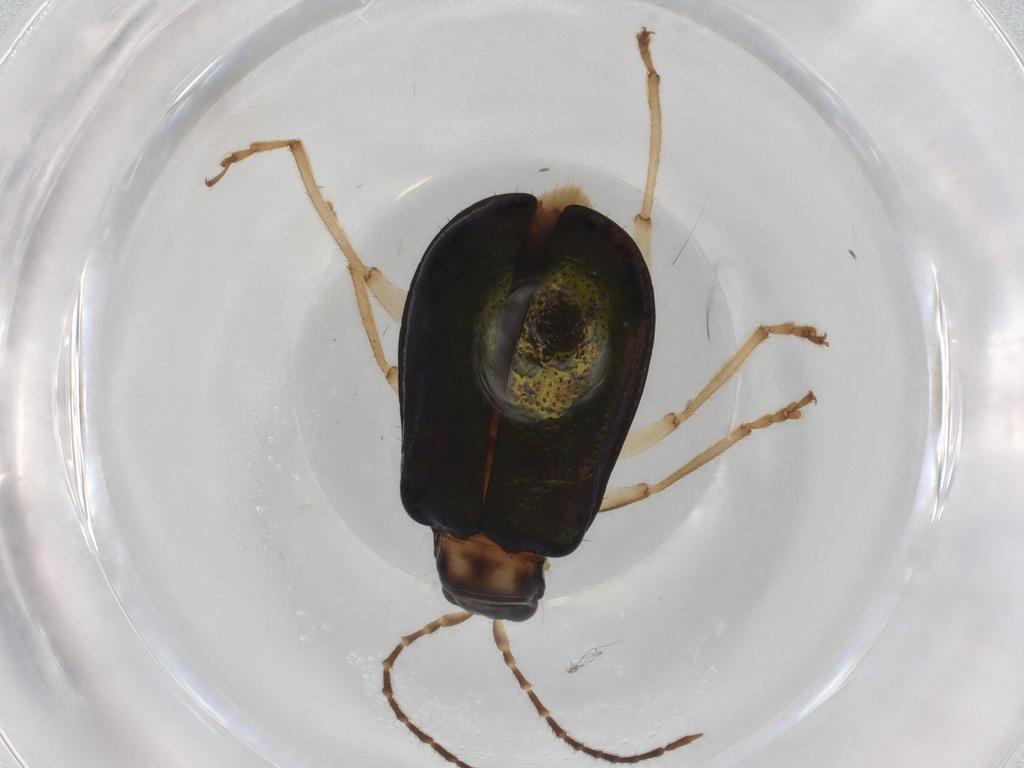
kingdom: Animalia
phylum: Arthropoda
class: Insecta
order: Coleoptera
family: Chrysomelidae
